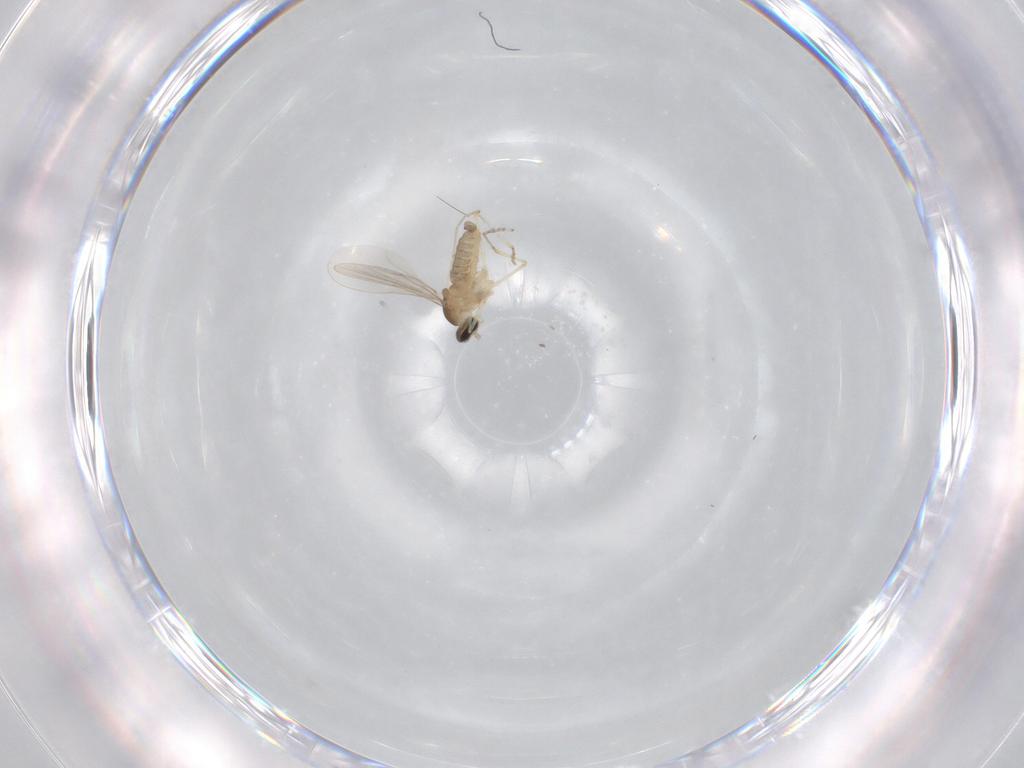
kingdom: Animalia
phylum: Arthropoda
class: Insecta
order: Diptera
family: Cecidomyiidae
